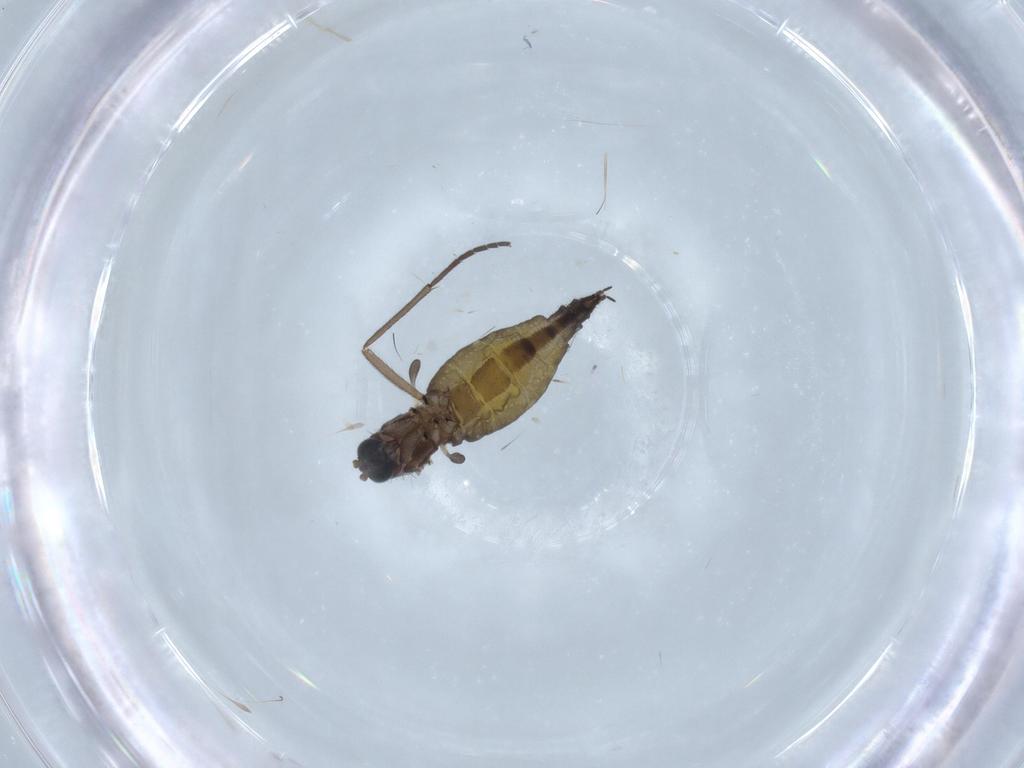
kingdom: Animalia
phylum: Arthropoda
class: Insecta
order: Diptera
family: Sciaridae
